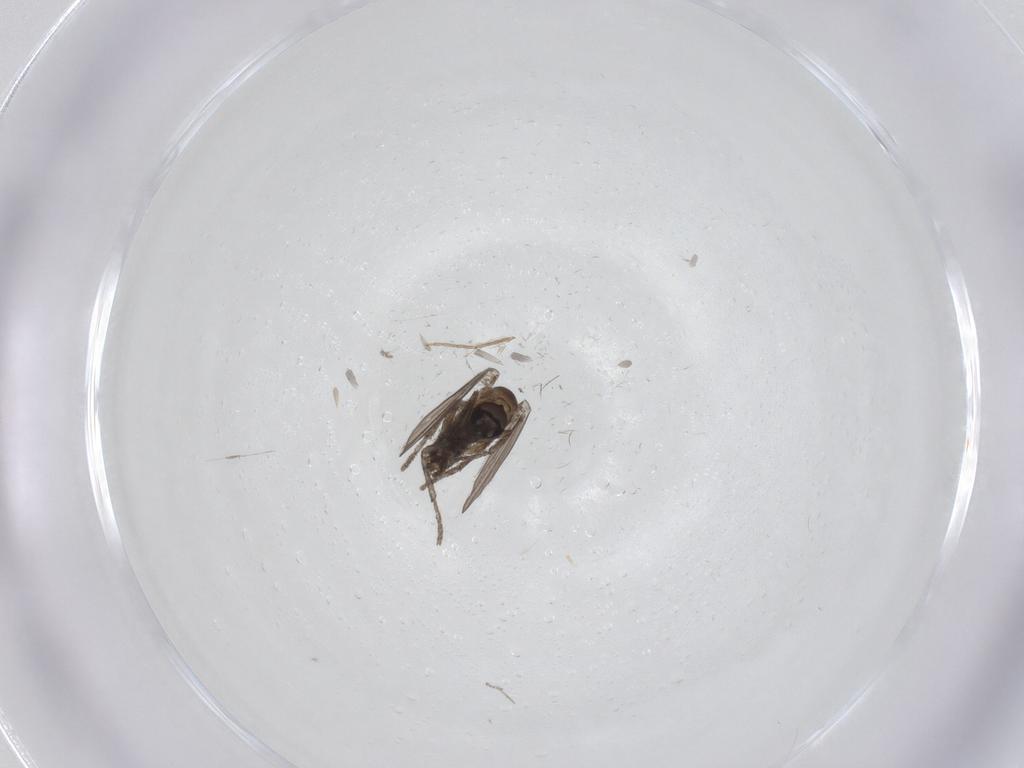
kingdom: Animalia
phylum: Arthropoda
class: Insecta
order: Diptera
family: Psychodidae
